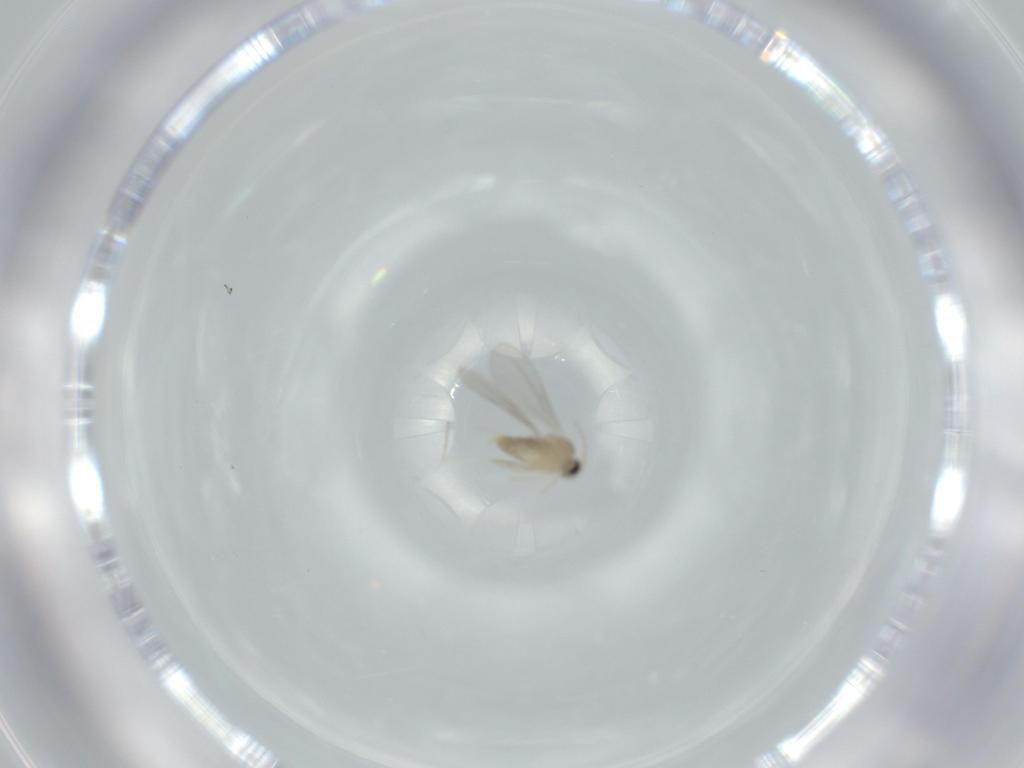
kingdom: Animalia
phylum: Arthropoda
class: Insecta
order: Diptera
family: Cecidomyiidae
